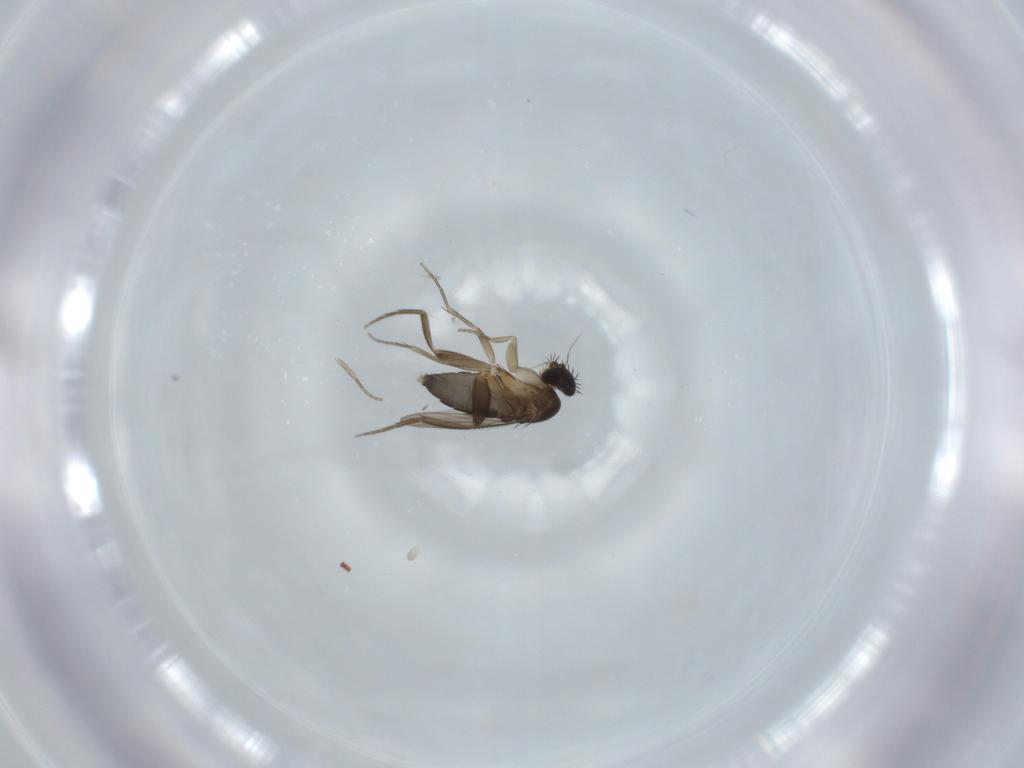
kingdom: Animalia
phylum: Arthropoda
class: Insecta
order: Diptera
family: Phoridae
